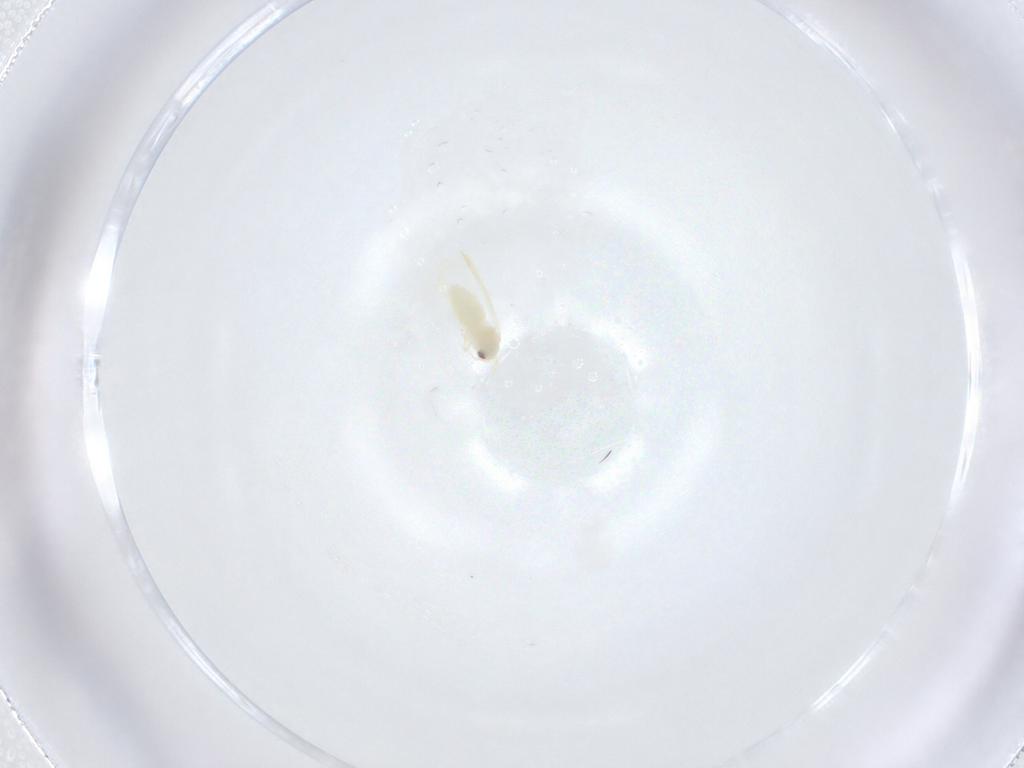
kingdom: Animalia
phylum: Arthropoda
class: Insecta
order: Hemiptera
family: Aleyrodidae
